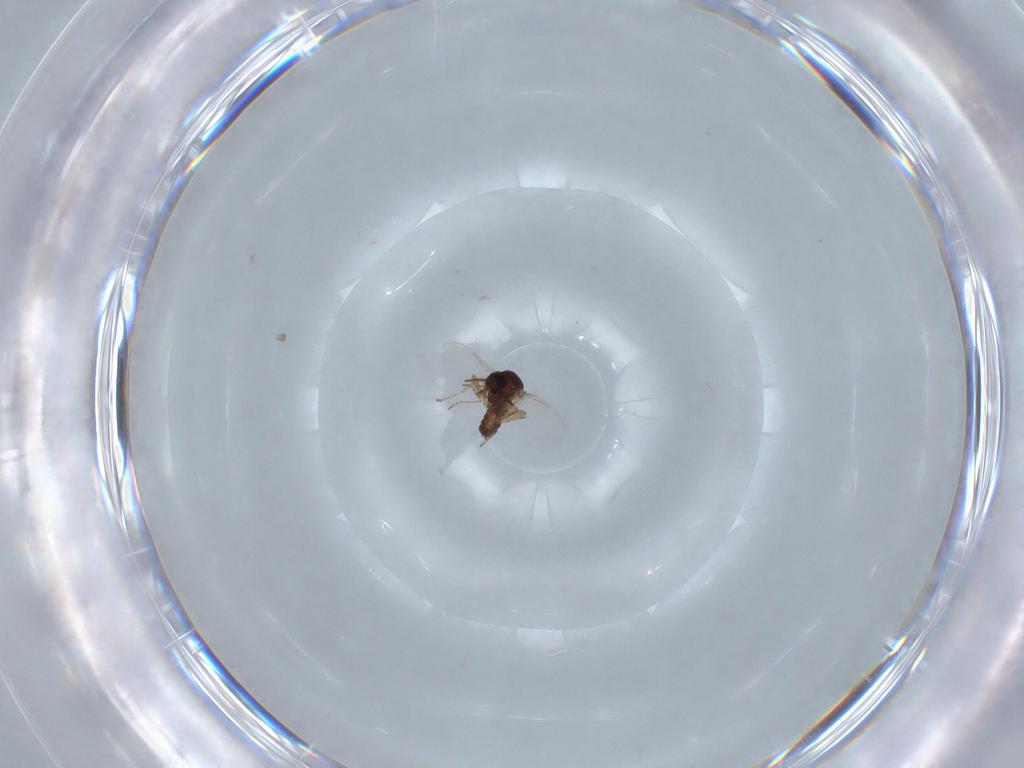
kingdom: Animalia
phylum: Arthropoda
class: Insecta
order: Diptera
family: Ceratopogonidae
